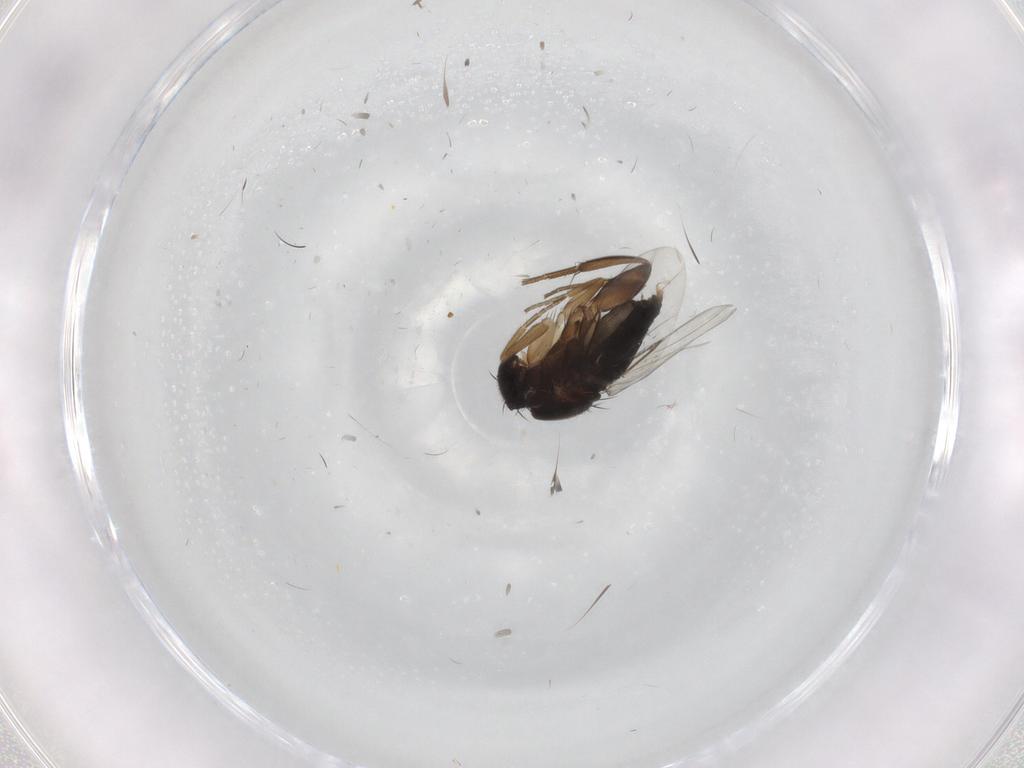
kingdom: Animalia
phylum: Arthropoda
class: Insecta
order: Diptera
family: Phoridae
